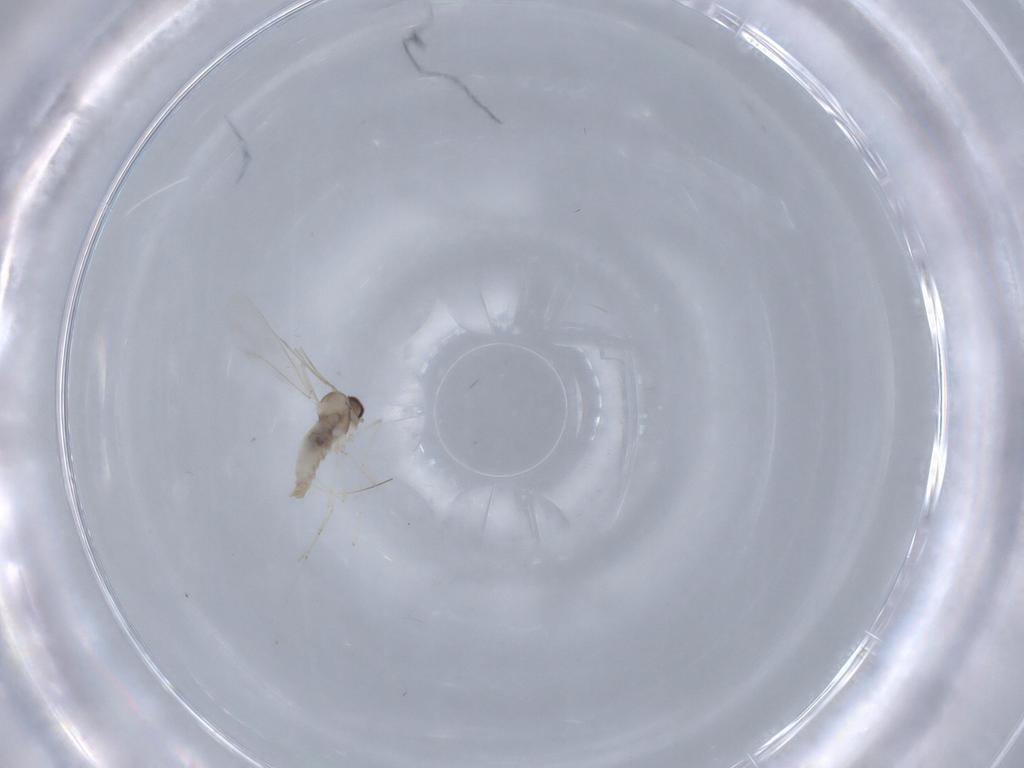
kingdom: Animalia
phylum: Arthropoda
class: Insecta
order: Diptera
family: Cecidomyiidae
